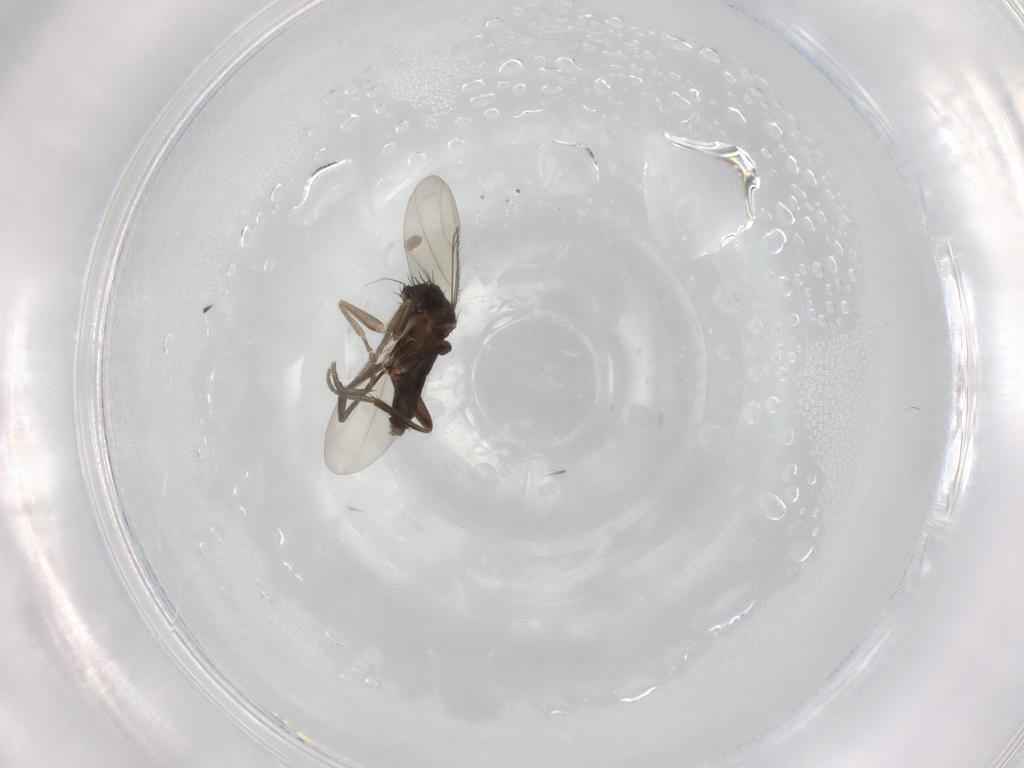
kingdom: Animalia
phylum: Arthropoda
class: Insecta
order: Diptera
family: Phoridae
